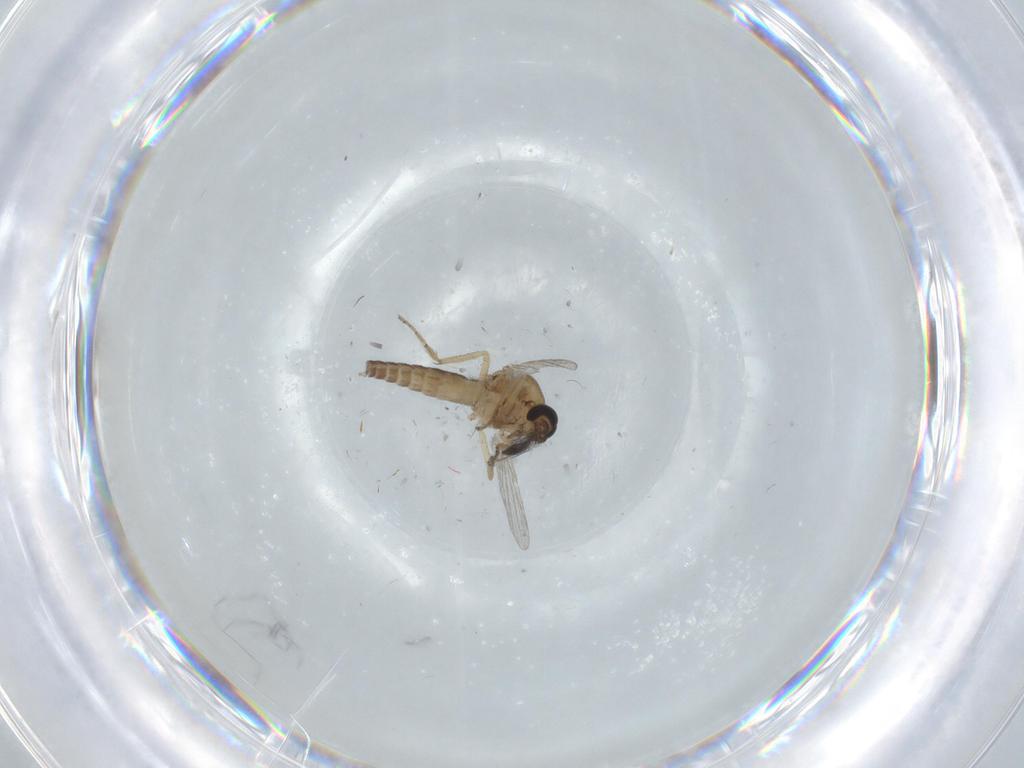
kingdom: Animalia
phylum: Arthropoda
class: Insecta
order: Diptera
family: Ceratopogonidae
